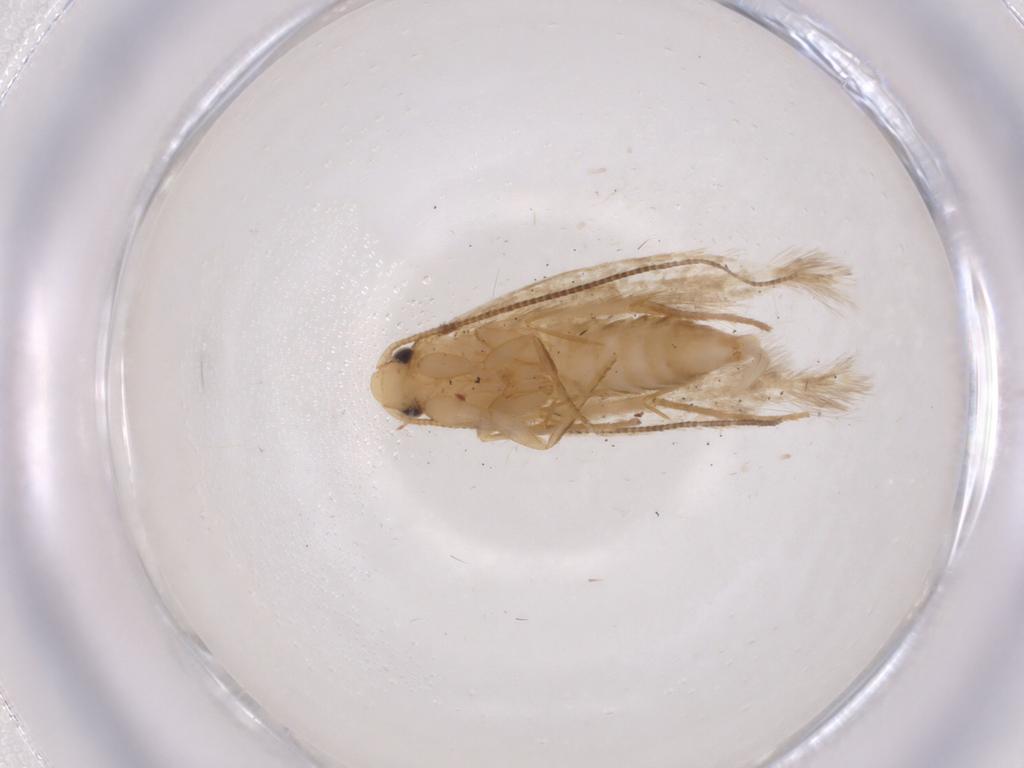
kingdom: Animalia
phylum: Arthropoda
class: Insecta
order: Lepidoptera
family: Tineidae
